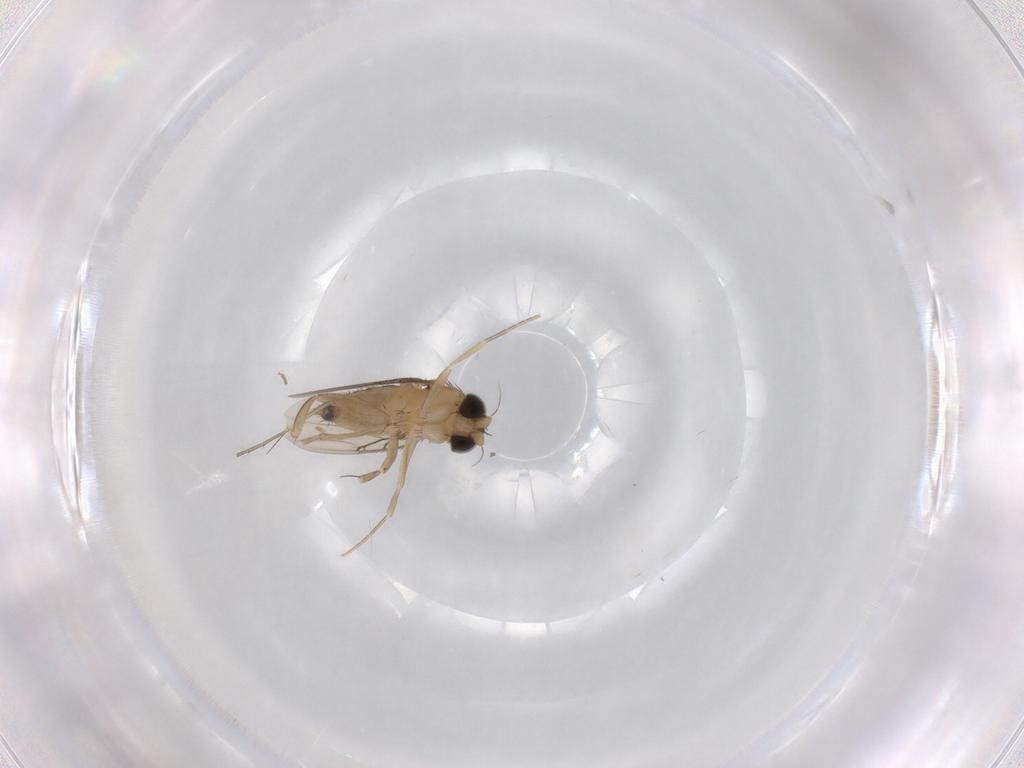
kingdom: Animalia
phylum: Arthropoda
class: Insecta
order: Diptera
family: Phoridae
